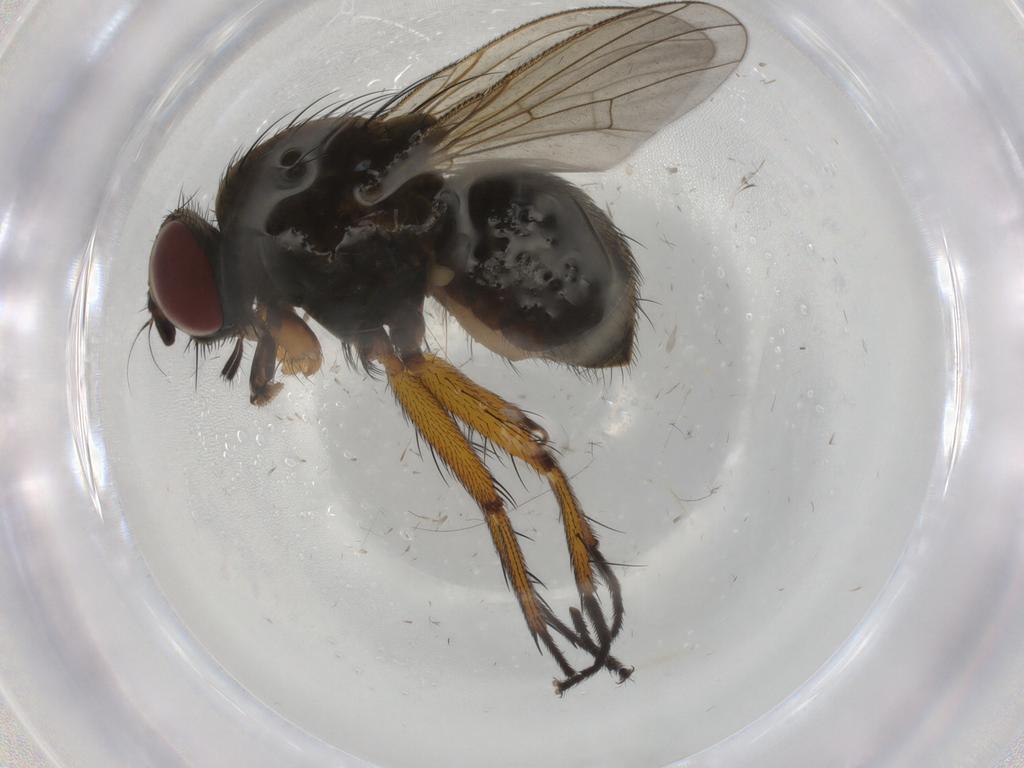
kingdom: Animalia
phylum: Arthropoda
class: Insecta
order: Diptera
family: Muscidae
